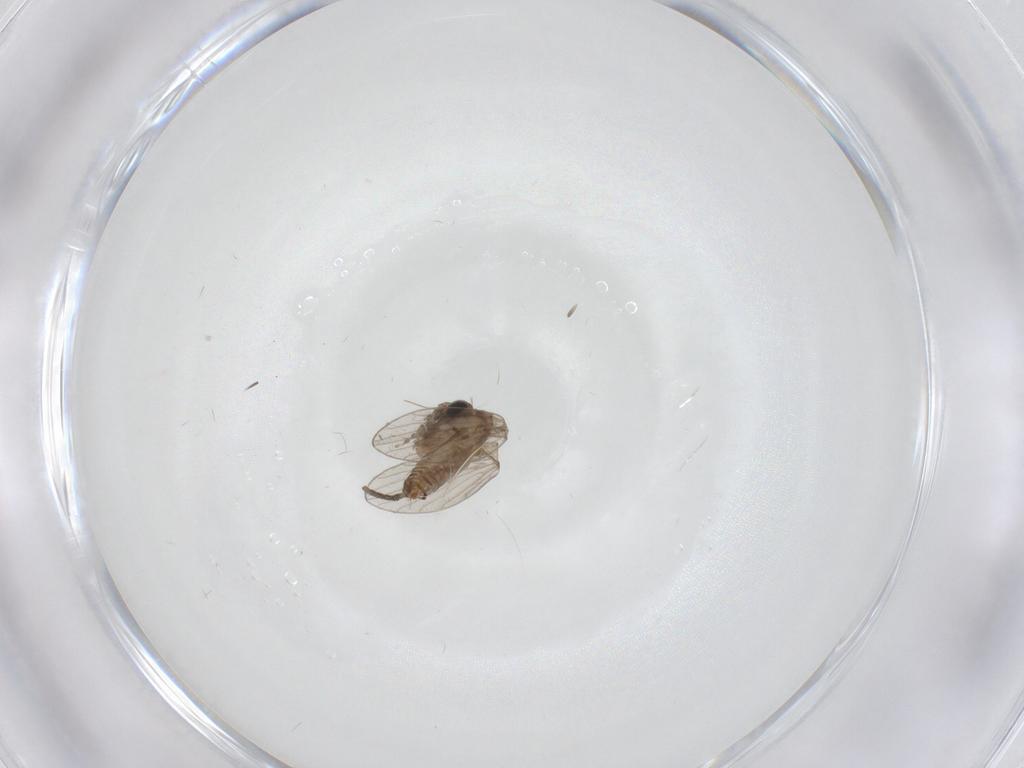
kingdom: Animalia
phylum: Arthropoda
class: Insecta
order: Diptera
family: Psychodidae
